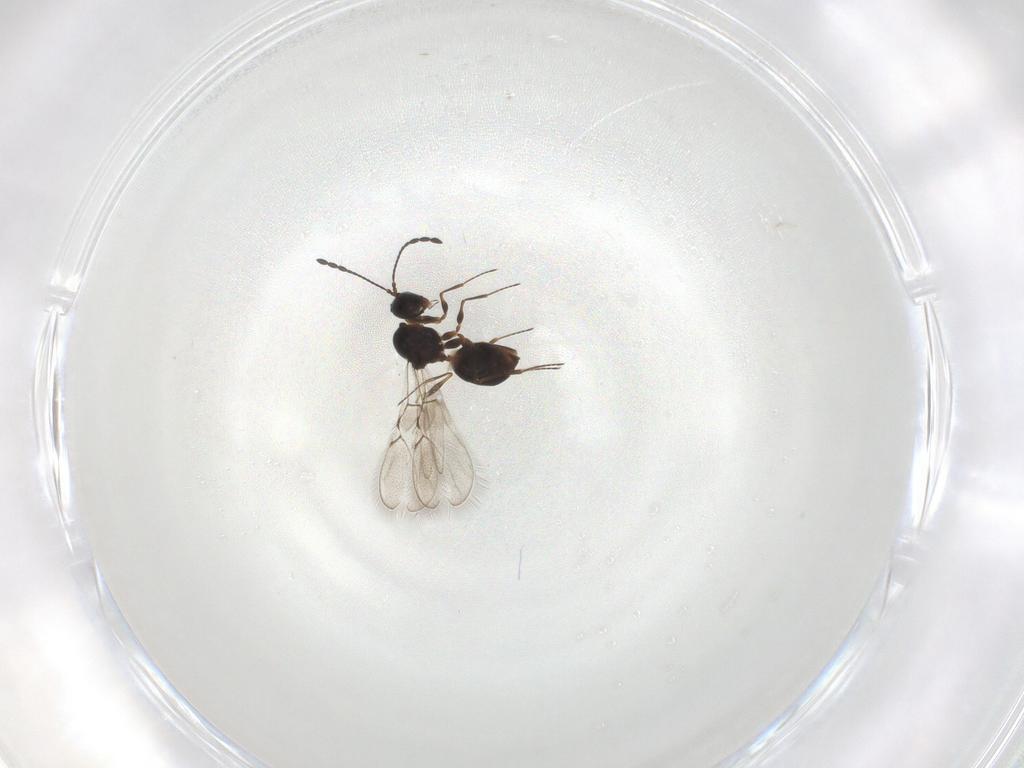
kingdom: Animalia
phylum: Arthropoda
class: Insecta
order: Hymenoptera
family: Figitidae
